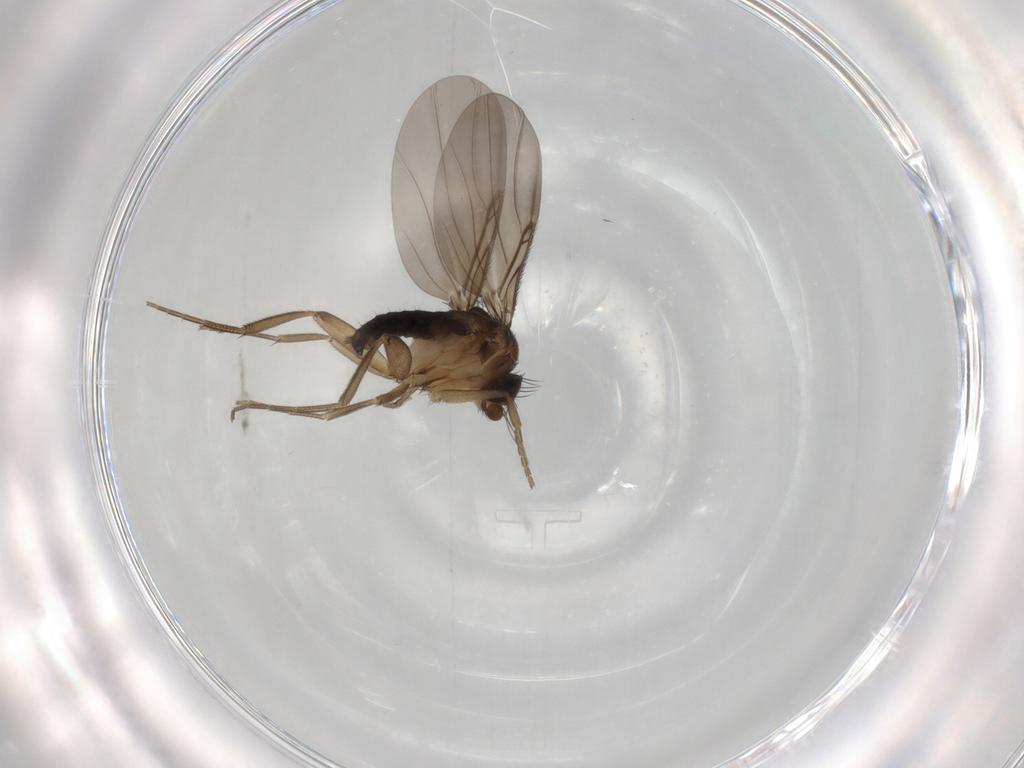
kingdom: Animalia
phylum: Arthropoda
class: Insecta
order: Diptera
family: Phoridae
